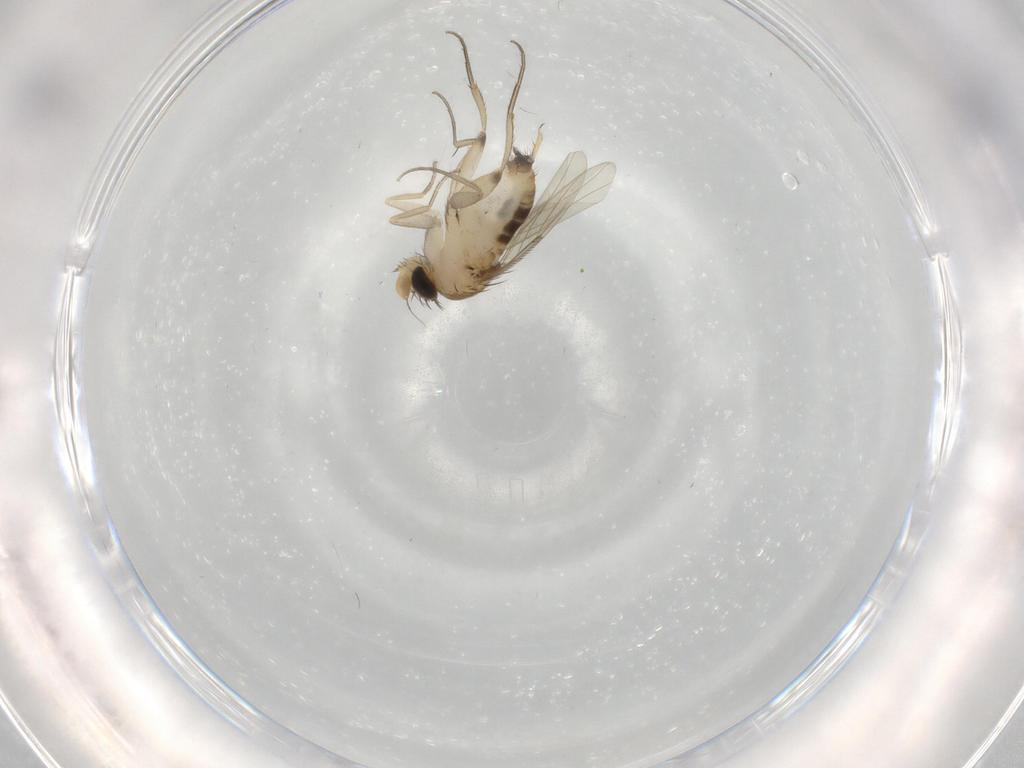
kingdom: Animalia
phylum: Arthropoda
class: Insecta
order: Diptera
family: Phoridae
